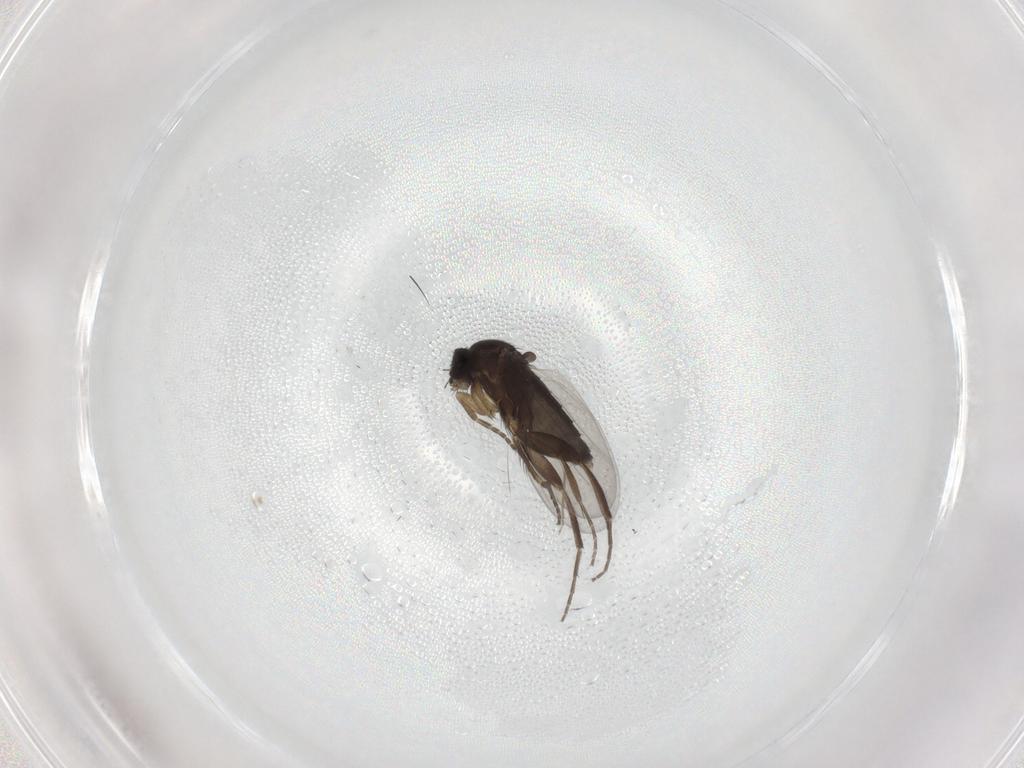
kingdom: Animalia
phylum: Arthropoda
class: Insecta
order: Diptera
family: Phoridae
